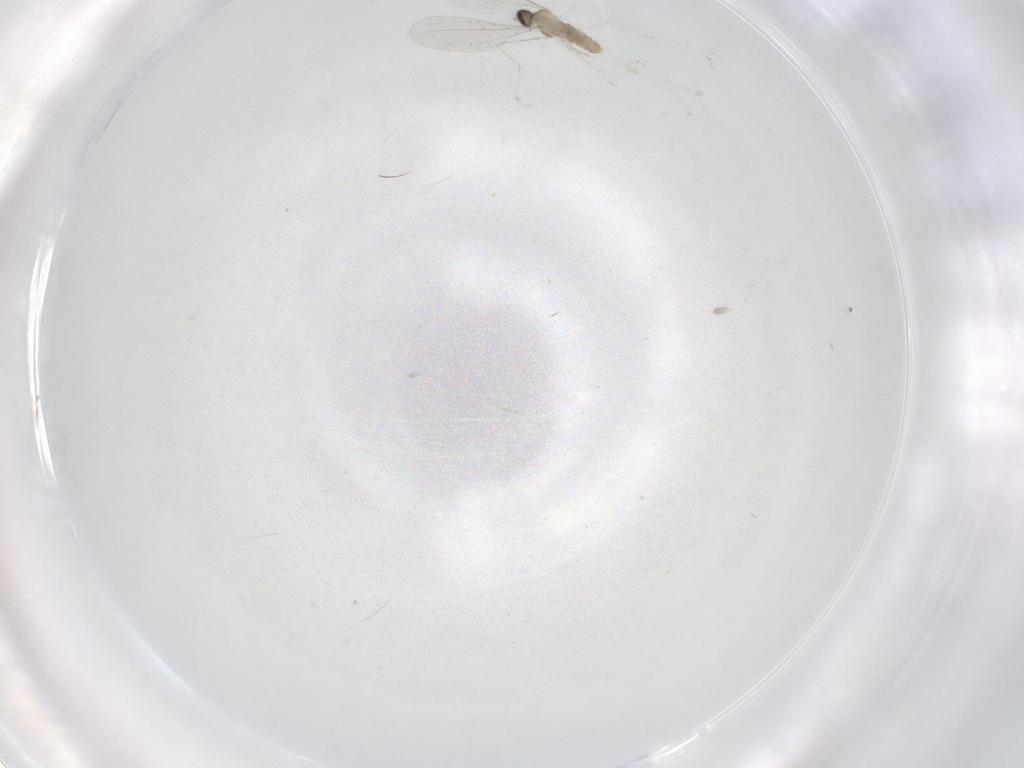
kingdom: Animalia
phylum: Arthropoda
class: Insecta
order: Diptera
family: Cecidomyiidae
